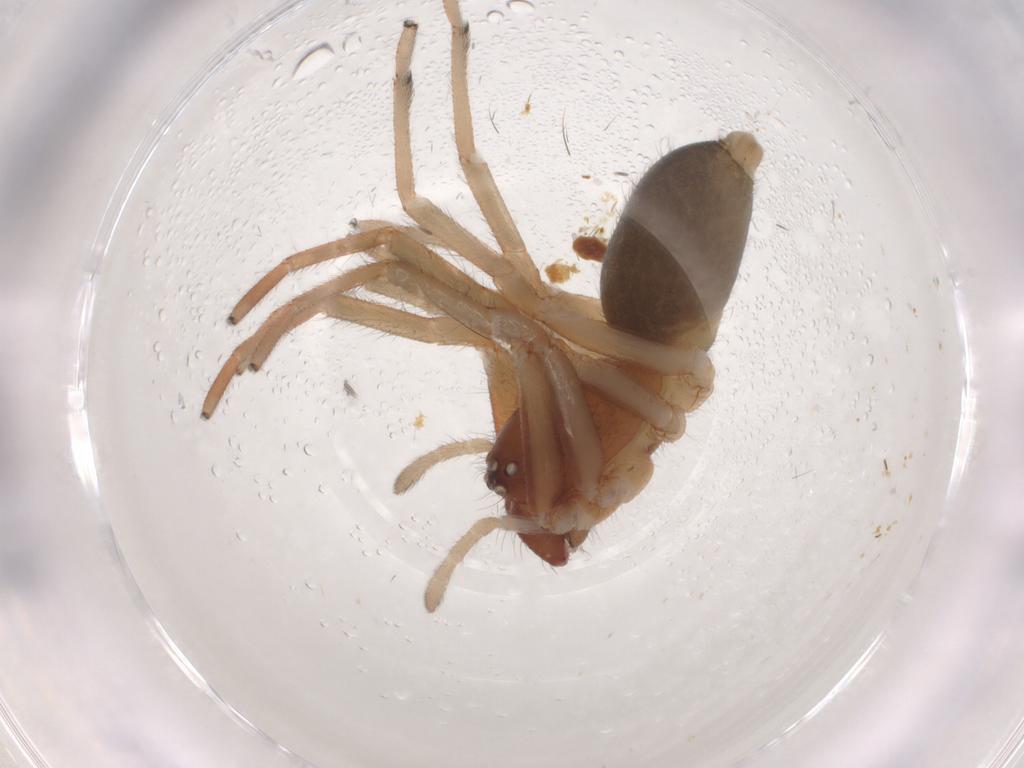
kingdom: Animalia
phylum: Arthropoda
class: Arachnida
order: Araneae
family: Trachelidae
